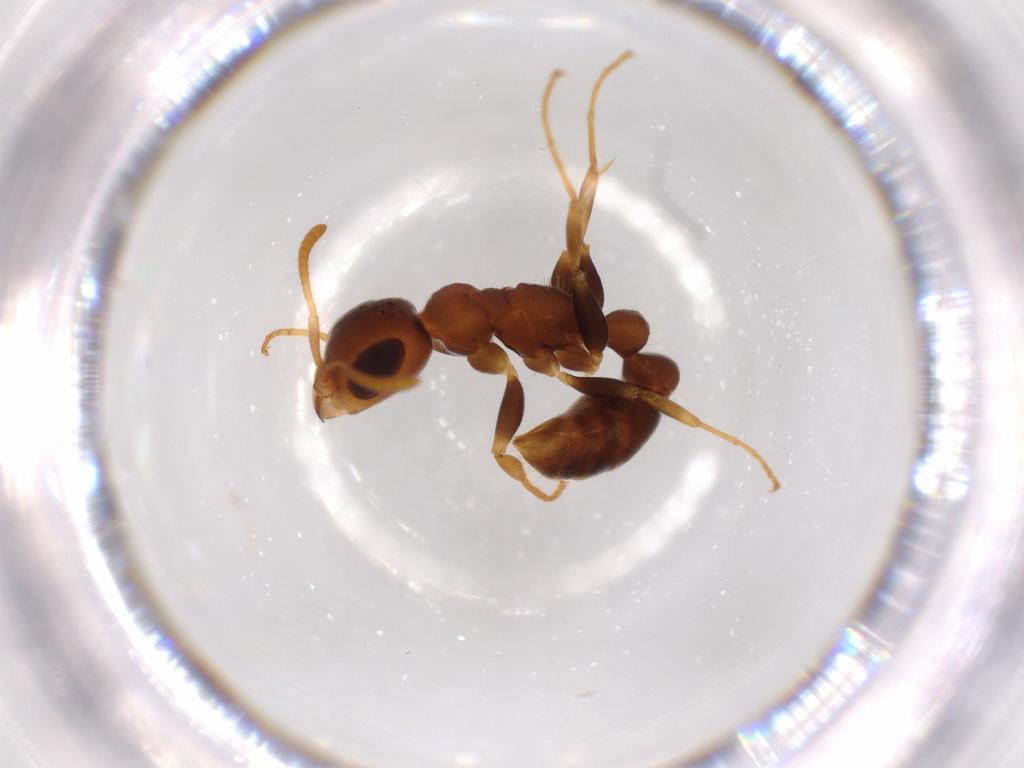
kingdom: Animalia
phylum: Arthropoda
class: Insecta
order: Hymenoptera
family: Formicidae
